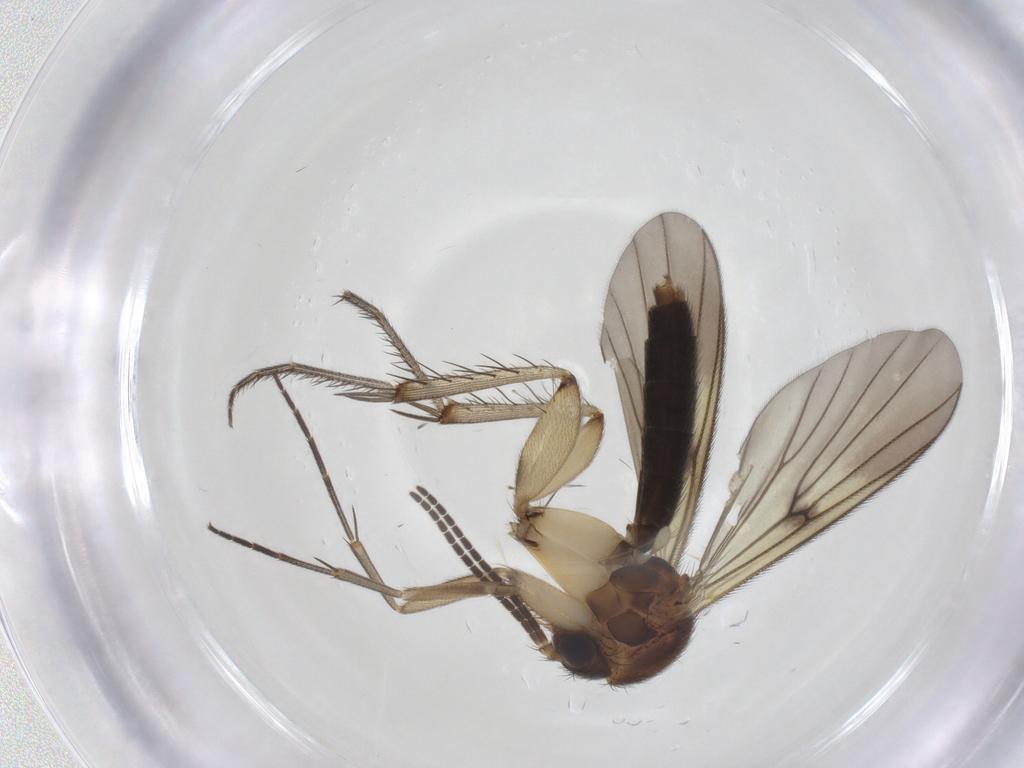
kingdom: Animalia
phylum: Arthropoda
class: Insecta
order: Diptera
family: Mycetophilidae
